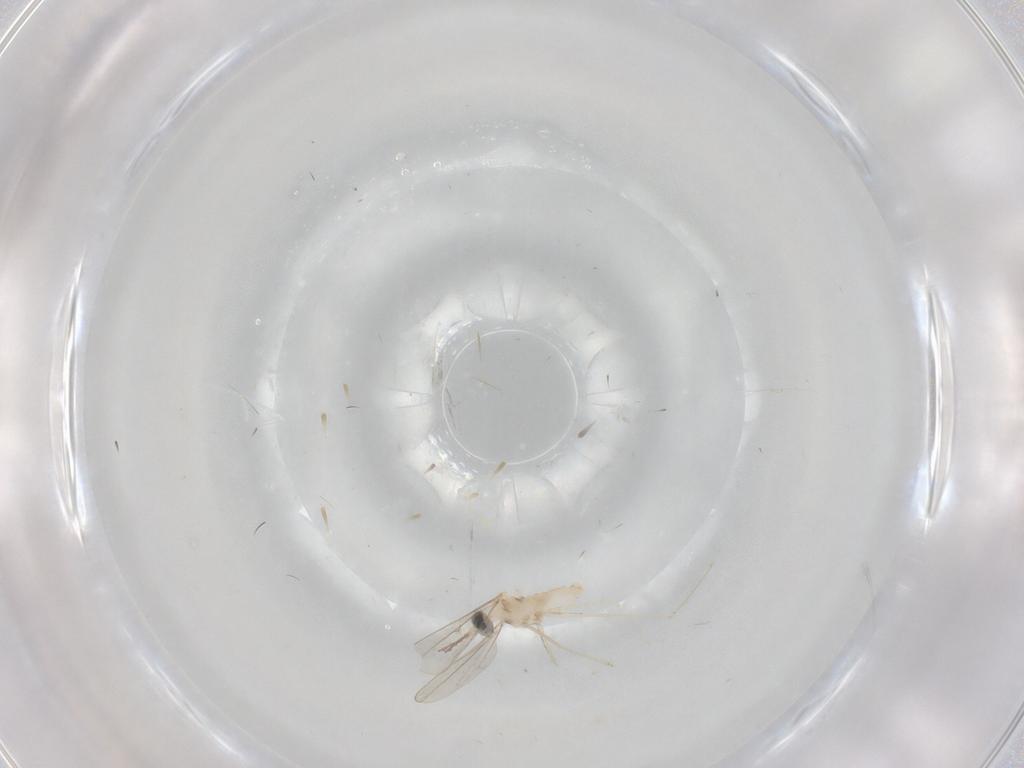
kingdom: Animalia
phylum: Arthropoda
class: Insecta
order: Diptera
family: Cecidomyiidae
